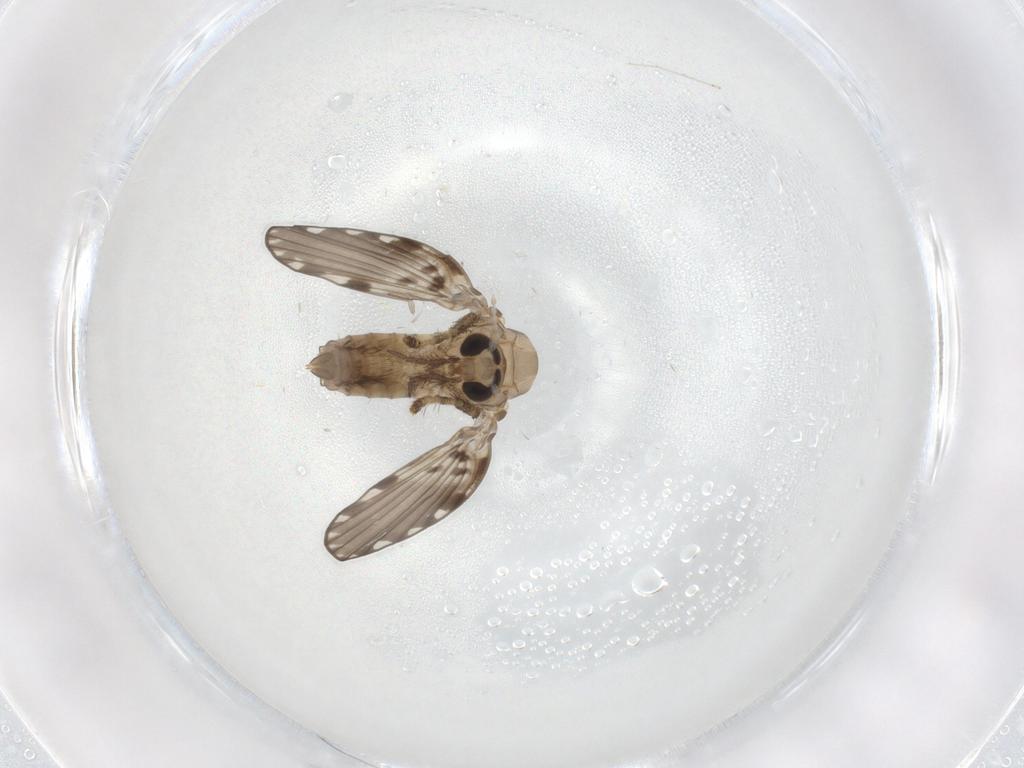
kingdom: Animalia
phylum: Arthropoda
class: Insecta
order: Diptera
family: Psychodidae
